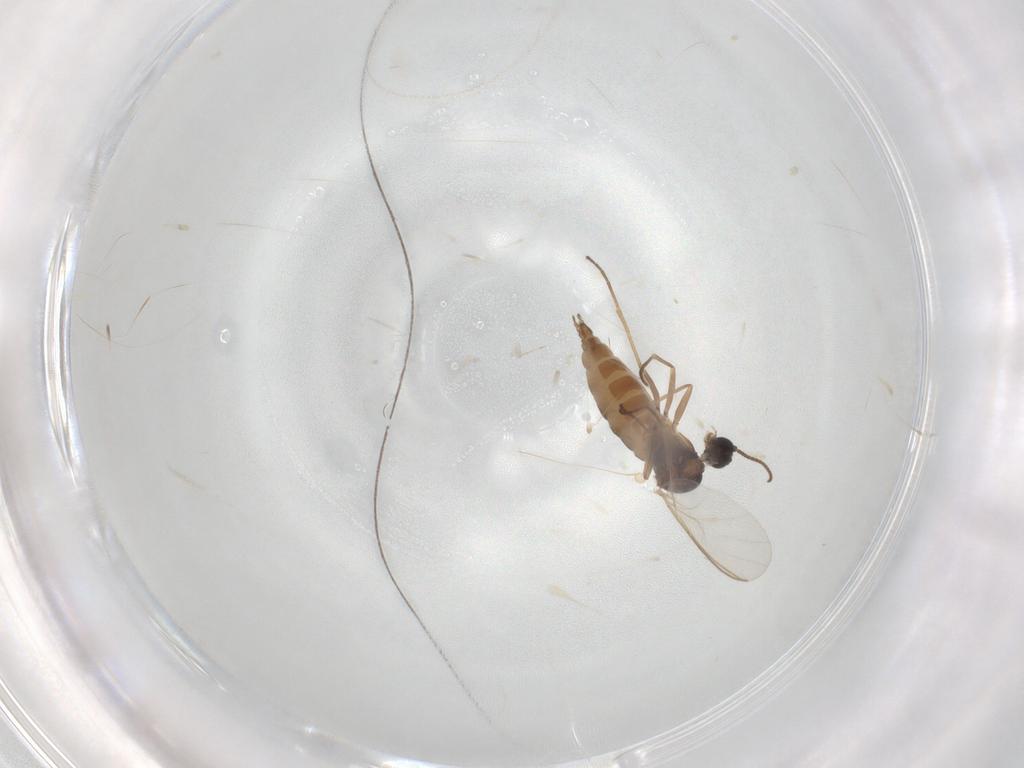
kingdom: Animalia
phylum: Arthropoda
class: Insecta
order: Diptera
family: Sciaridae
